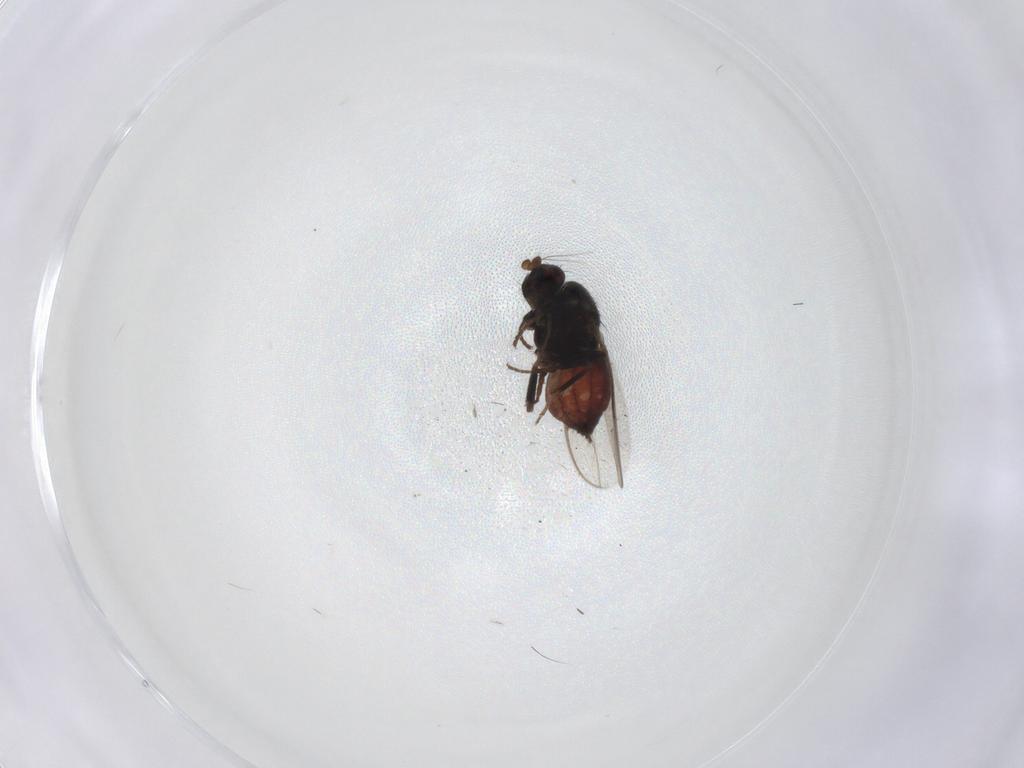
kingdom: Animalia
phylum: Arthropoda
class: Insecta
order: Diptera
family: Sphaeroceridae
